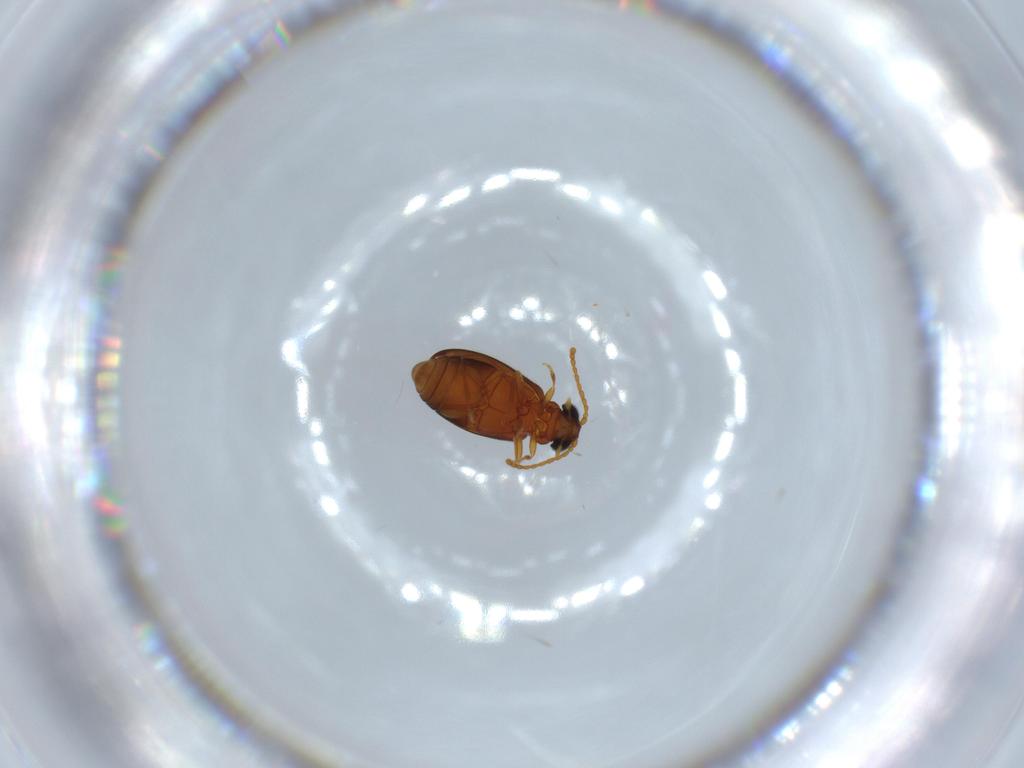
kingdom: Animalia
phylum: Arthropoda
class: Insecta
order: Coleoptera
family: Aderidae
